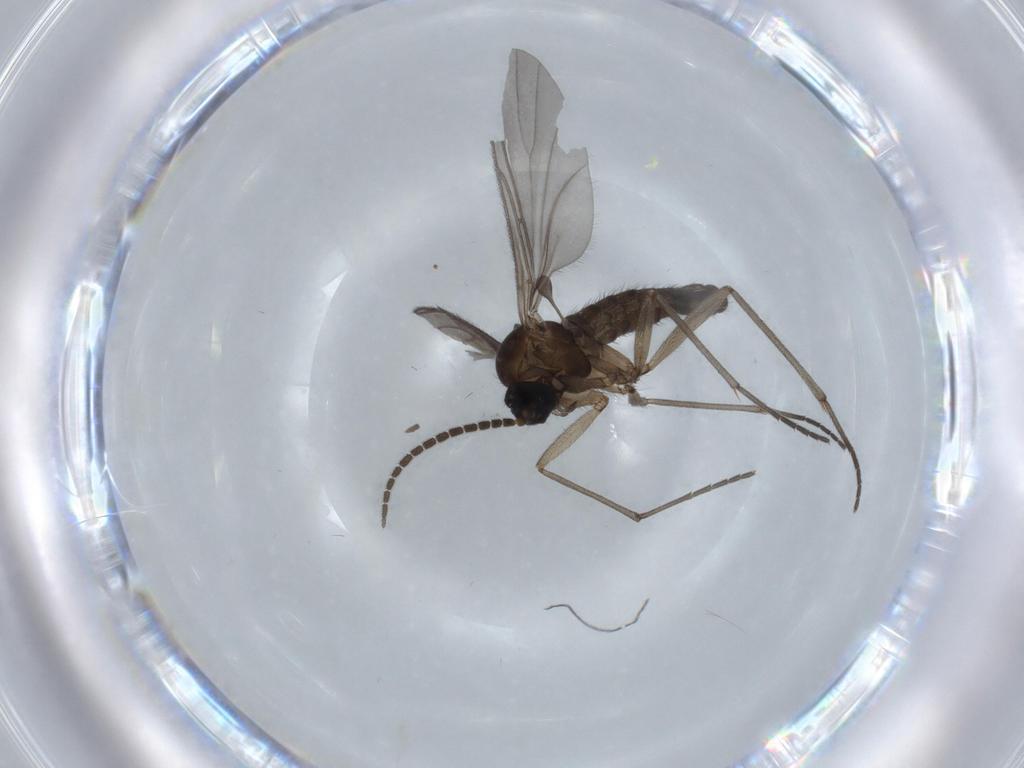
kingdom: Animalia
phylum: Arthropoda
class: Insecta
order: Diptera
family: Sciaridae
